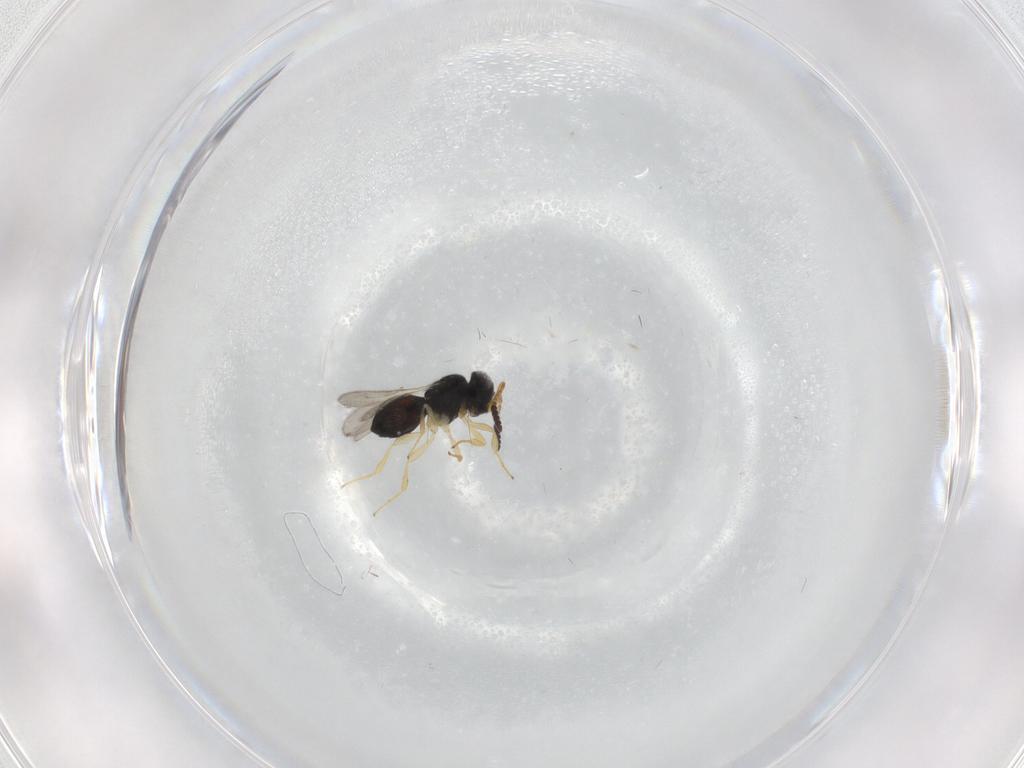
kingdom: Animalia
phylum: Arthropoda
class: Insecta
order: Hymenoptera
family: Scelionidae
